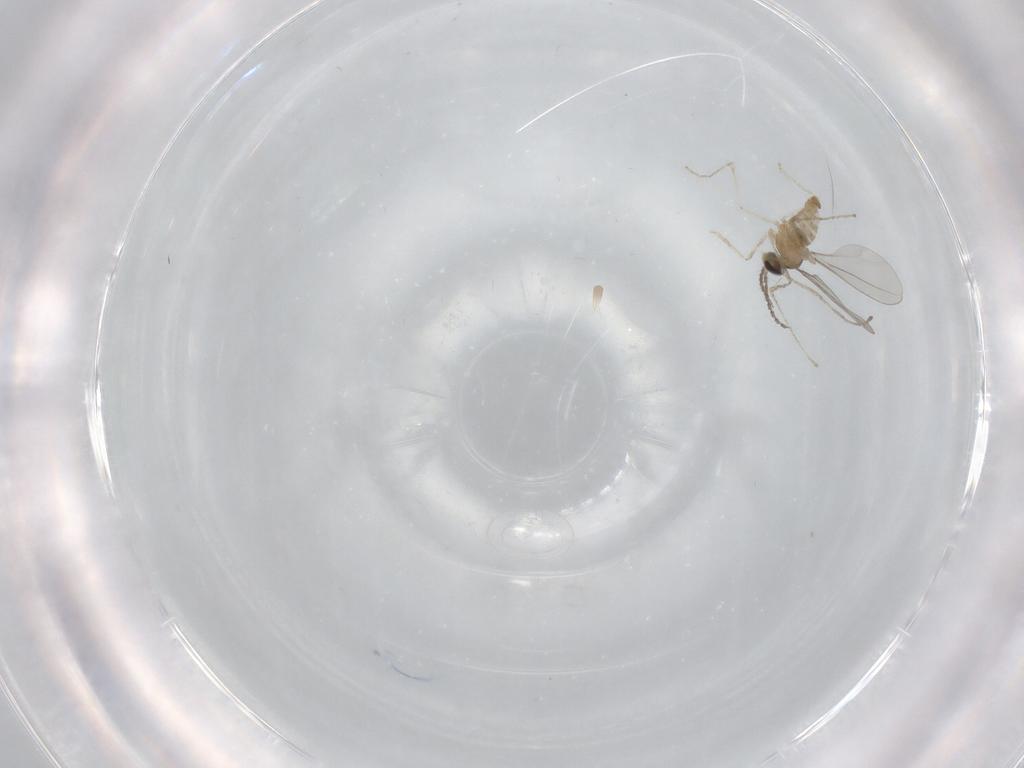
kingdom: Animalia
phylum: Arthropoda
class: Insecta
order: Diptera
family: Cecidomyiidae
